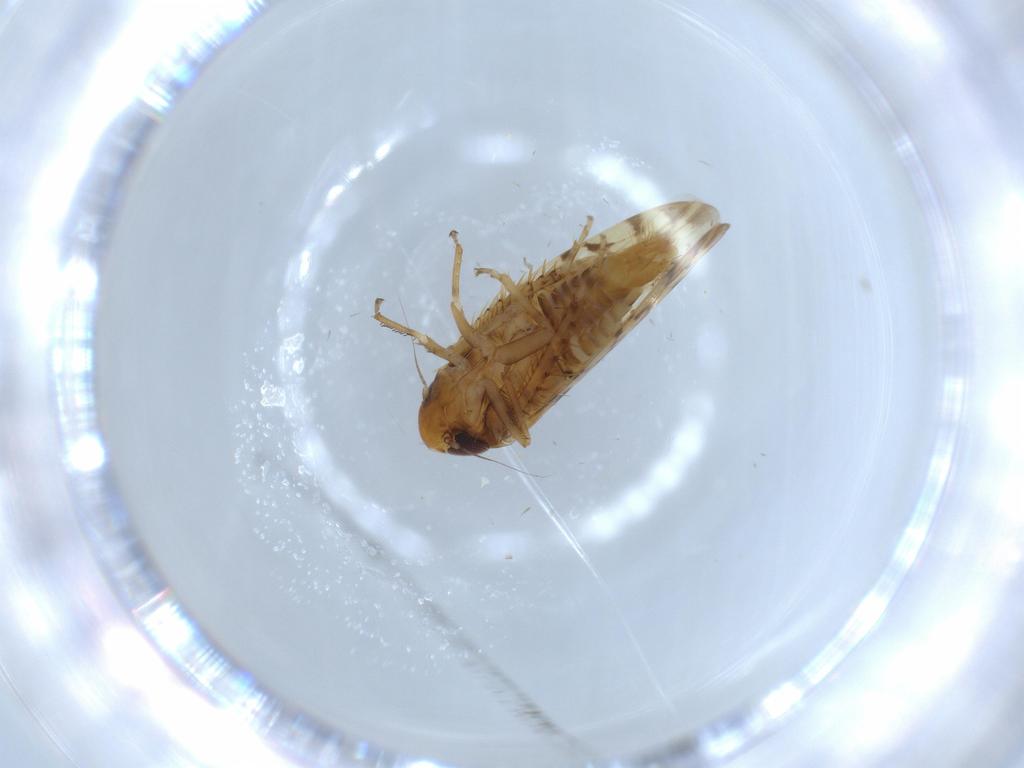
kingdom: Animalia
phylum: Arthropoda
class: Insecta
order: Hemiptera
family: Cicadellidae
